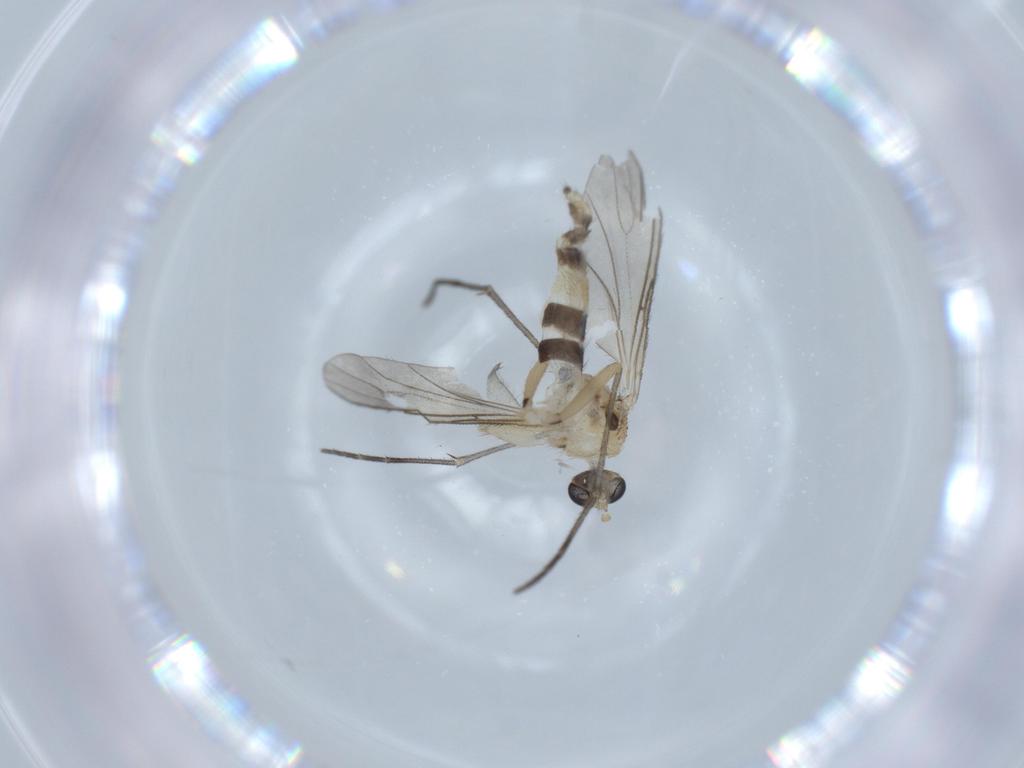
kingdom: Animalia
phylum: Arthropoda
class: Insecta
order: Diptera
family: Sciaridae
